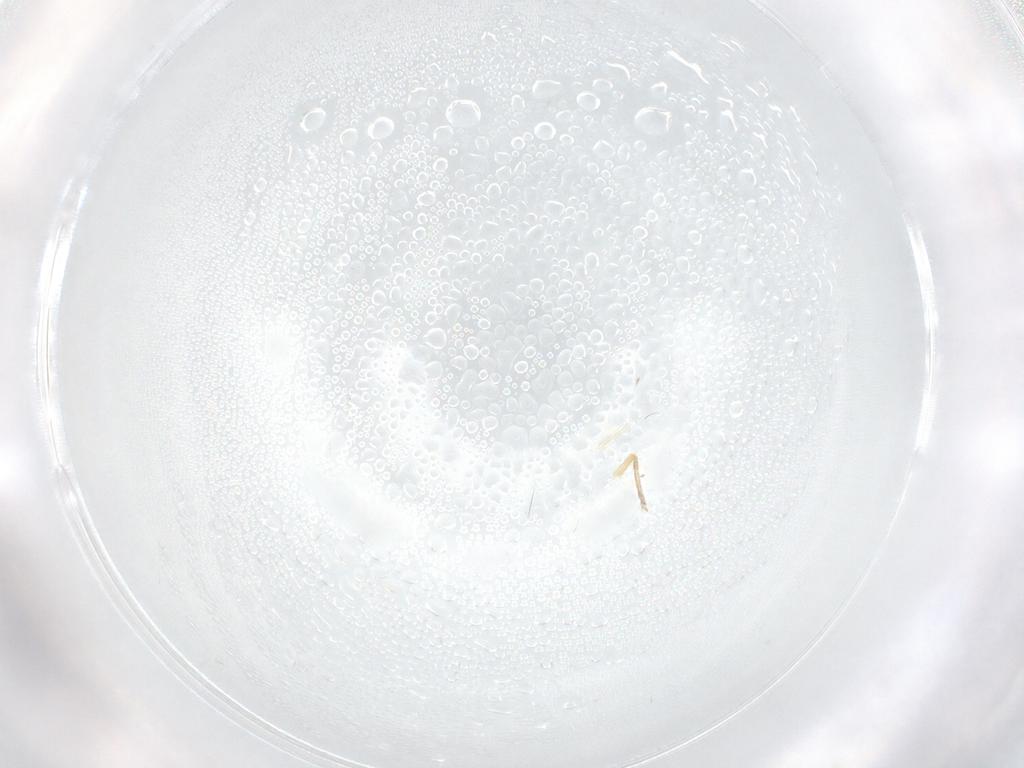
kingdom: Animalia
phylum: Arthropoda
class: Insecta
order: Diptera
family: Ceratopogonidae
